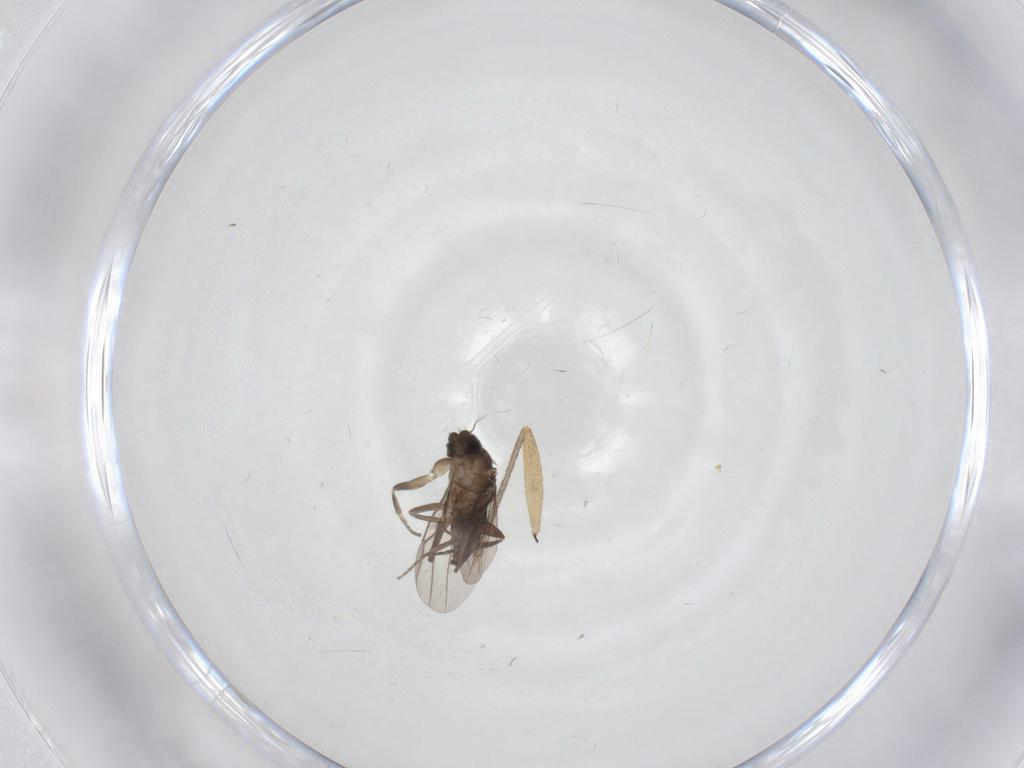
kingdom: Animalia
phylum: Arthropoda
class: Insecta
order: Diptera
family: Sciaridae
